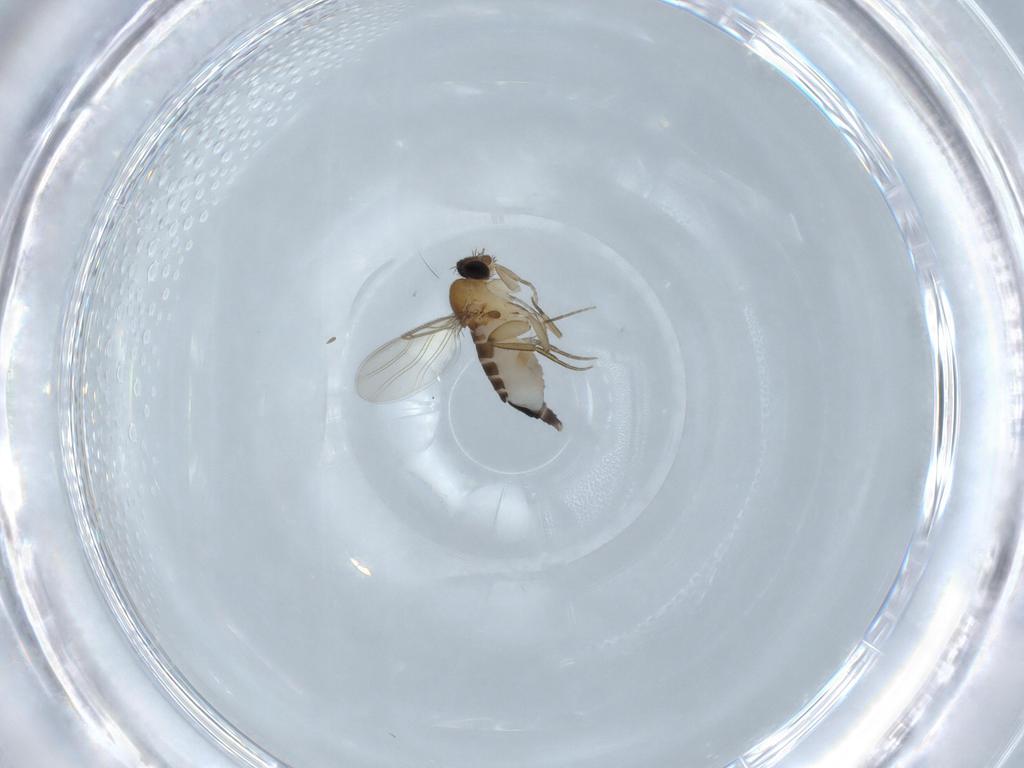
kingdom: Animalia
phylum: Arthropoda
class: Insecta
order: Diptera
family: Phoridae
